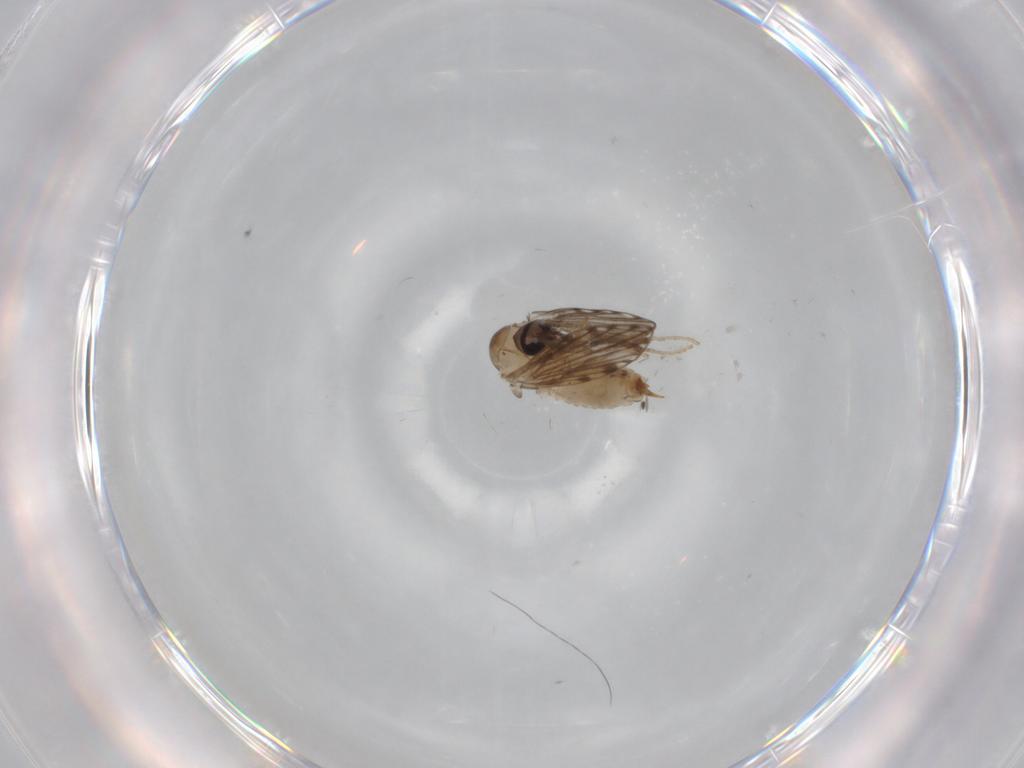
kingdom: Animalia
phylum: Arthropoda
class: Insecta
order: Diptera
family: Psychodidae
